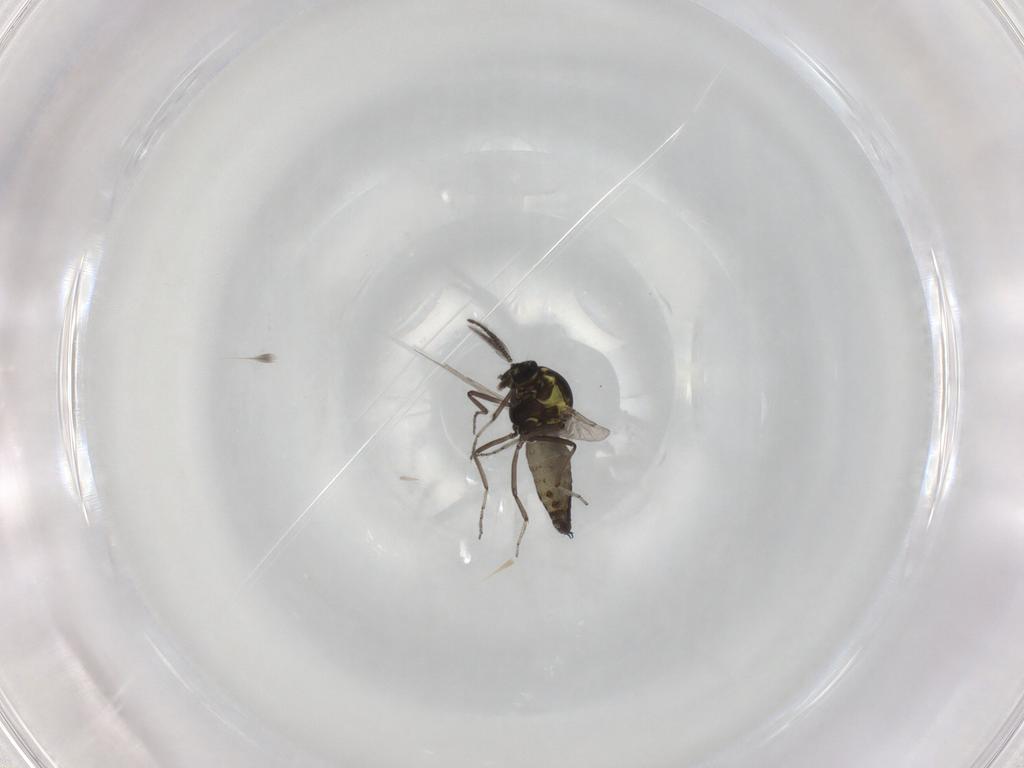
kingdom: Animalia
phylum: Arthropoda
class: Insecta
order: Diptera
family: Ceratopogonidae
